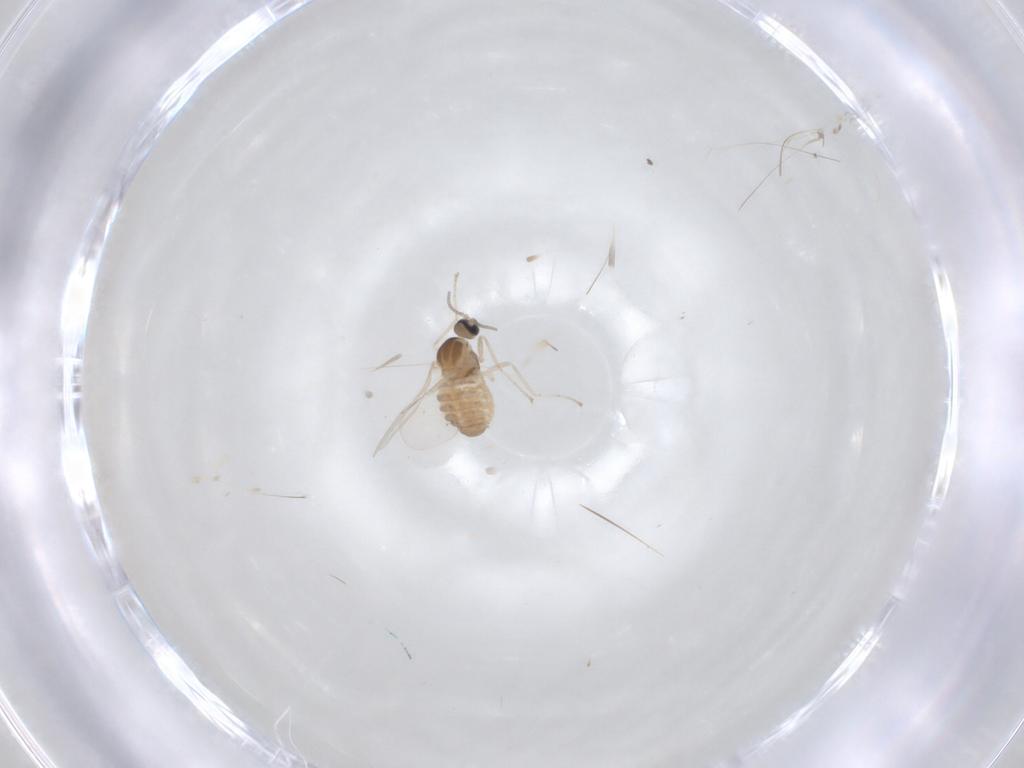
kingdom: Animalia
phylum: Arthropoda
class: Insecta
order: Diptera
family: Cecidomyiidae
